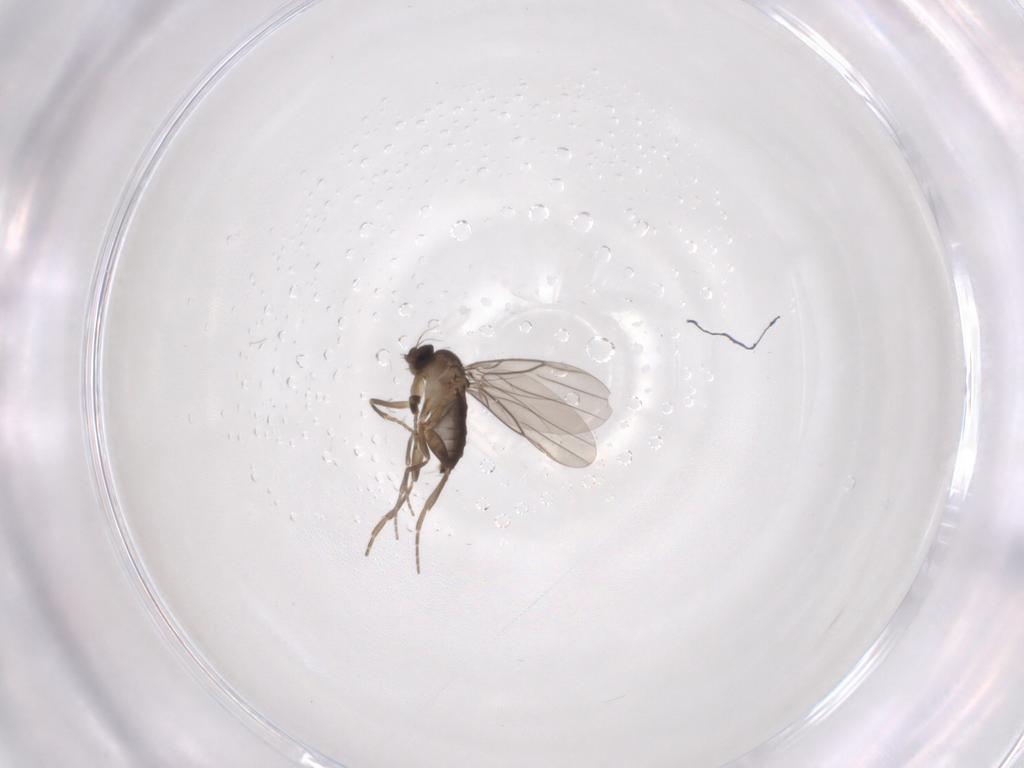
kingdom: Animalia
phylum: Arthropoda
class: Insecta
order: Diptera
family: Phoridae
